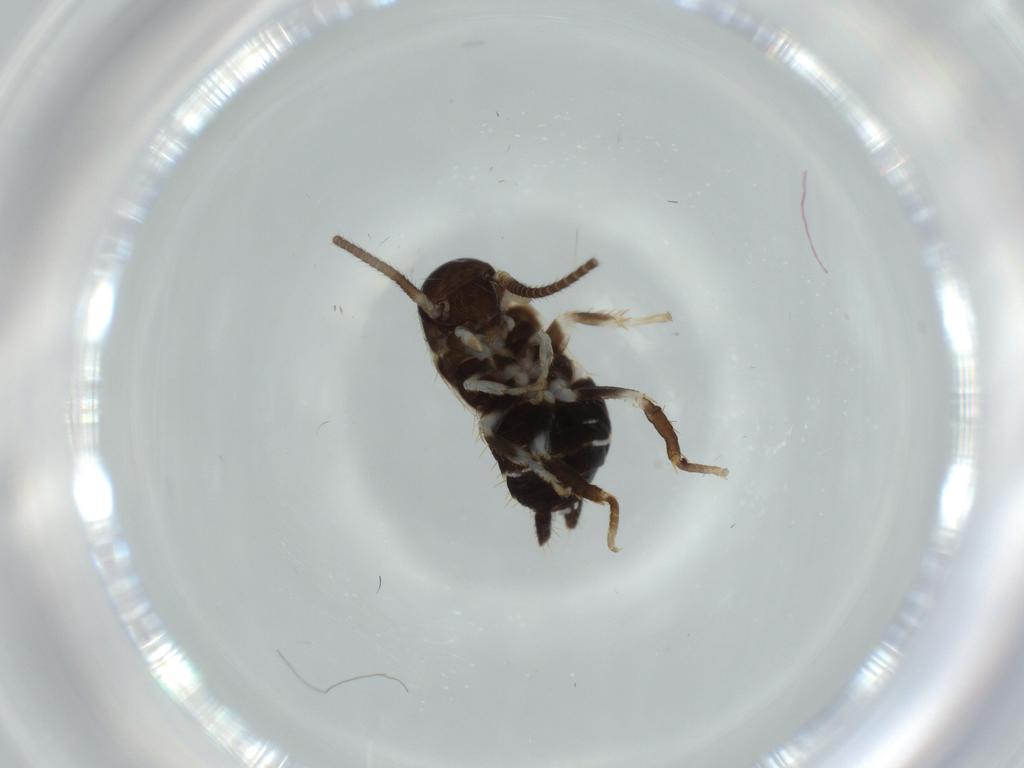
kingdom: Animalia
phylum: Arthropoda
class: Insecta
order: Blattodea
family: Ectobiidae
